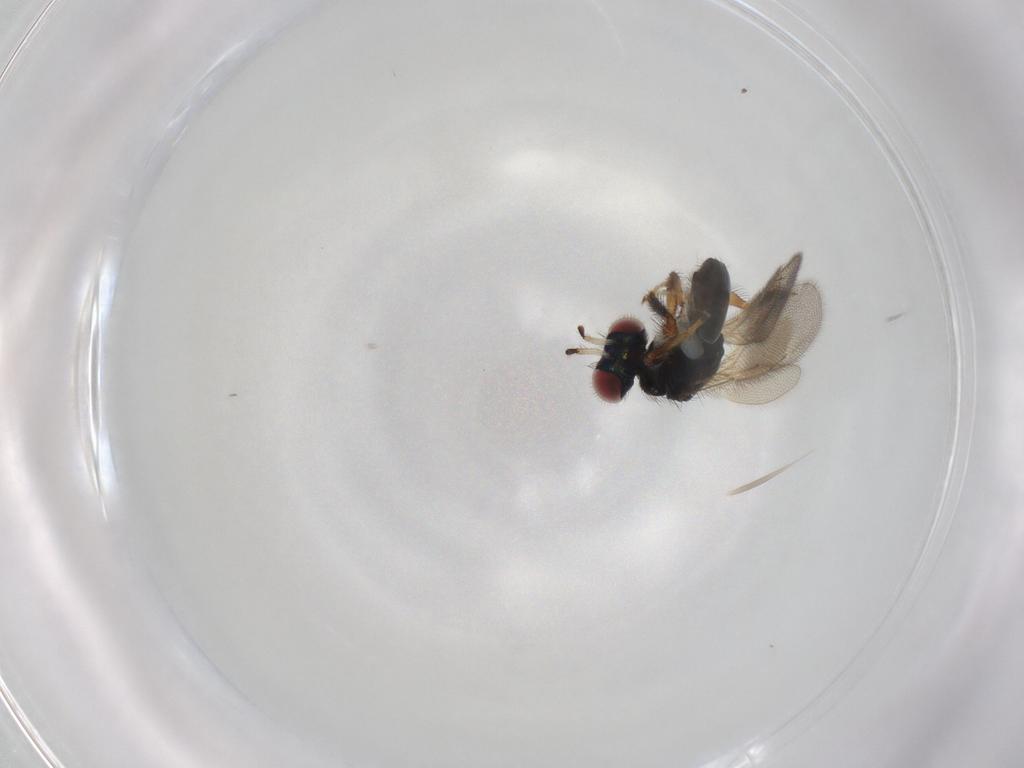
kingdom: Animalia
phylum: Arthropoda
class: Insecta
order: Hymenoptera
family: Eulophidae
